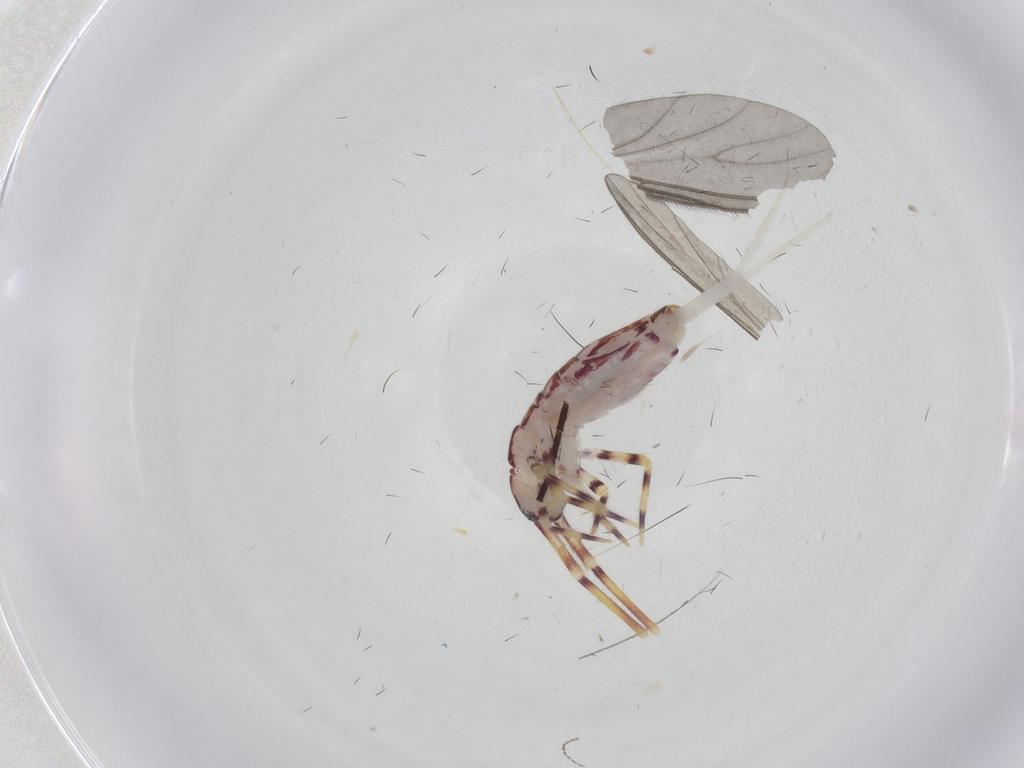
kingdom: Animalia
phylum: Arthropoda
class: Collembola
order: Entomobryomorpha
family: Entomobryidae
